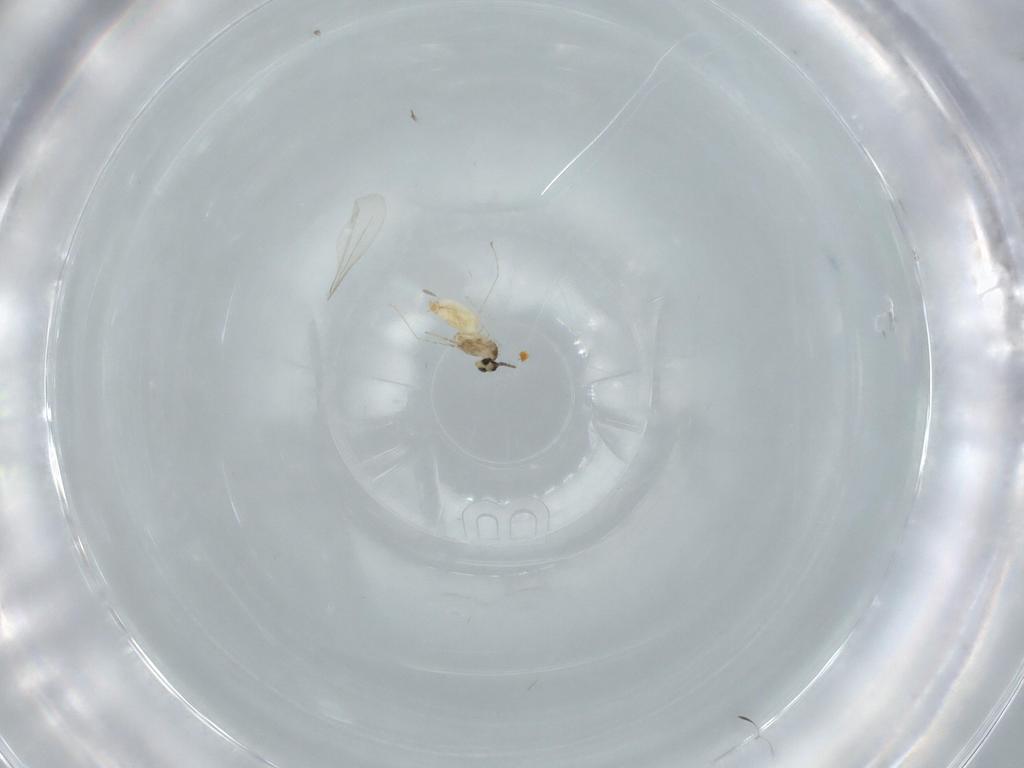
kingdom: Animalia
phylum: Arthropoda
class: Insecta
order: Diptera
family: Cecidomyiidae
